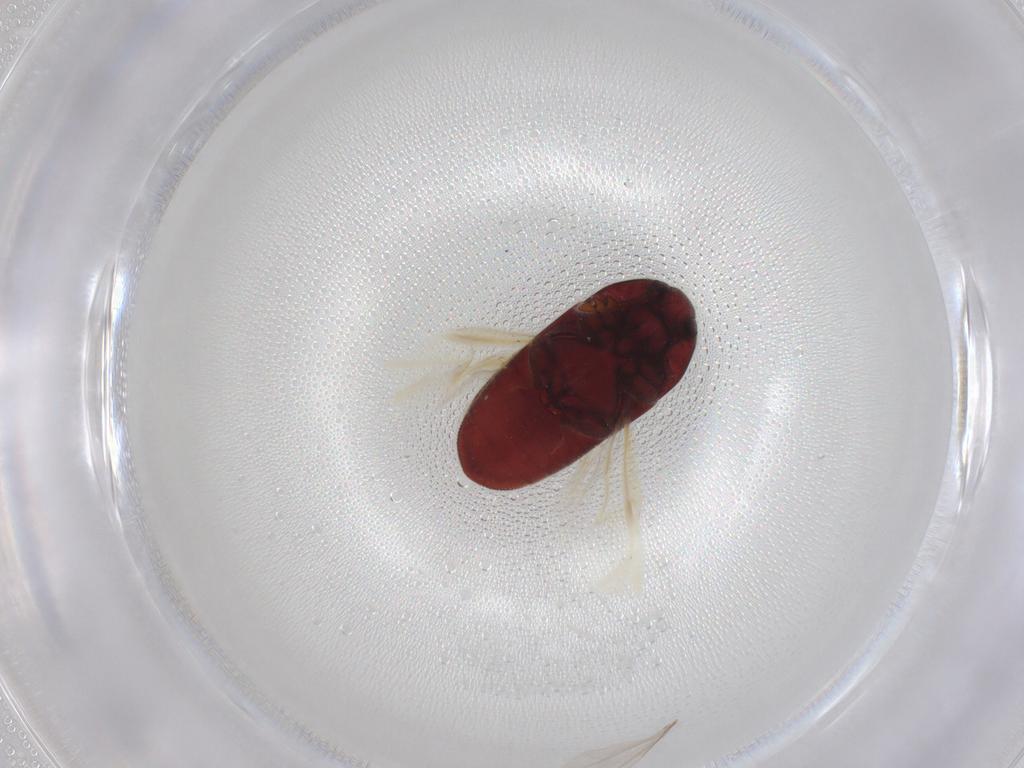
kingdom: Animalia
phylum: Arthropoda
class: Insecta
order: Coleoptera
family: Throscidae
